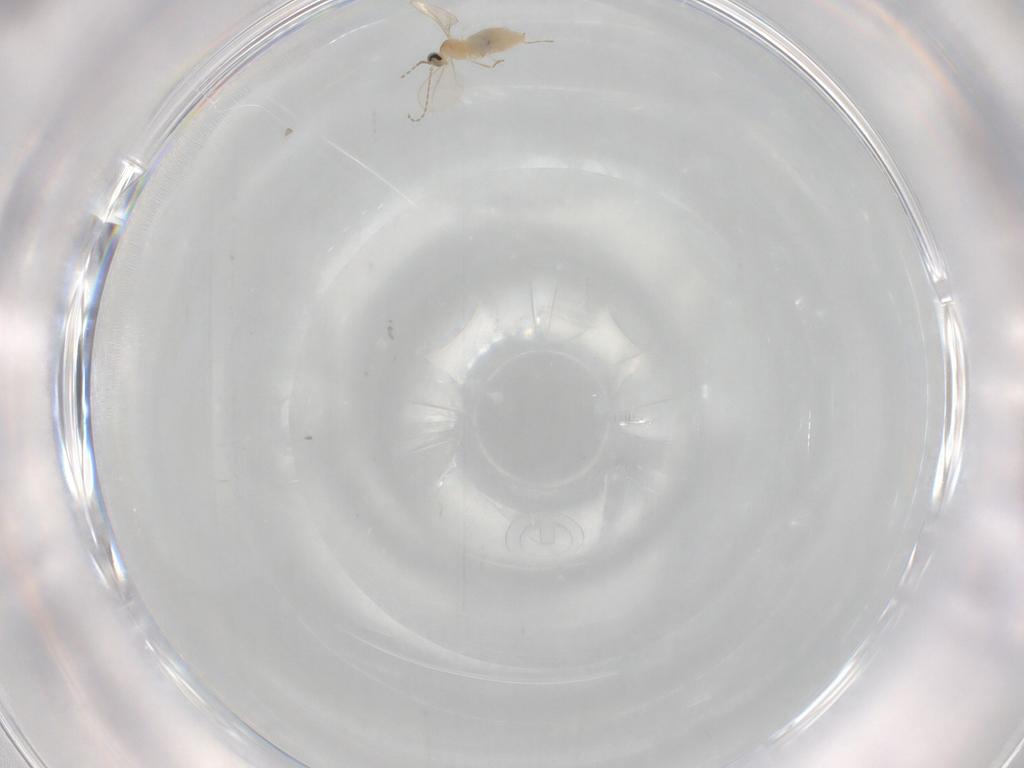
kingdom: Animalia
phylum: Arthropoda
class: Insecta
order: Diptera
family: Cecidomyiidae
